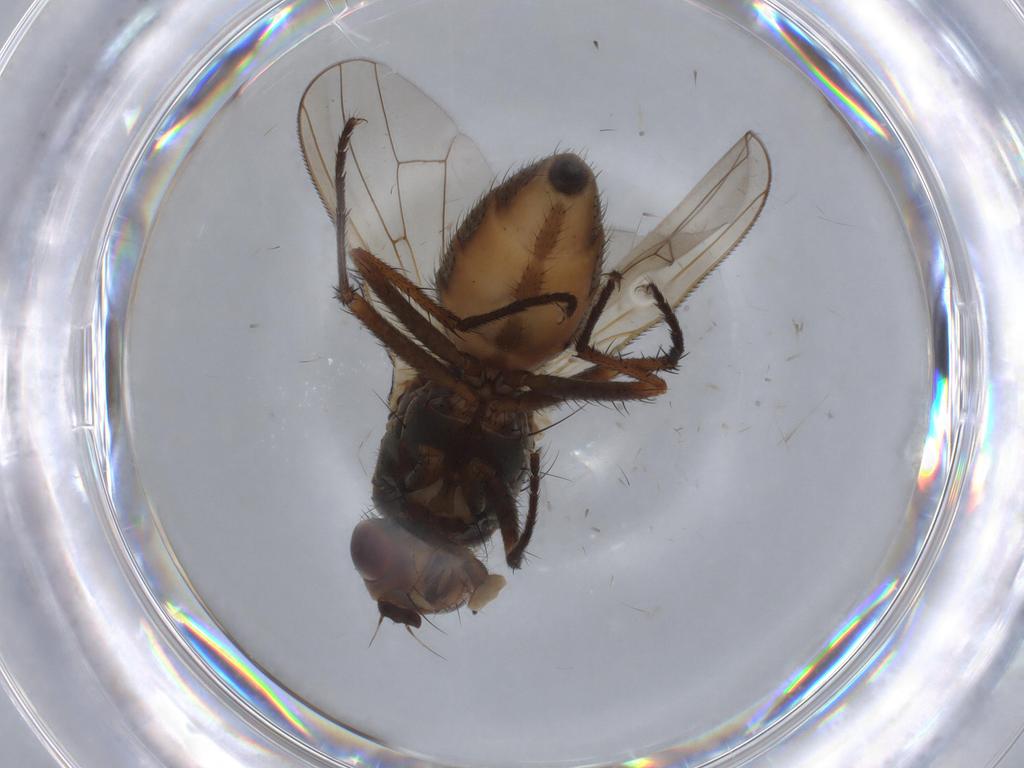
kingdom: Animalia
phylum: Arthropoda
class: Insecta
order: Diptera
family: Anthomyiidae
